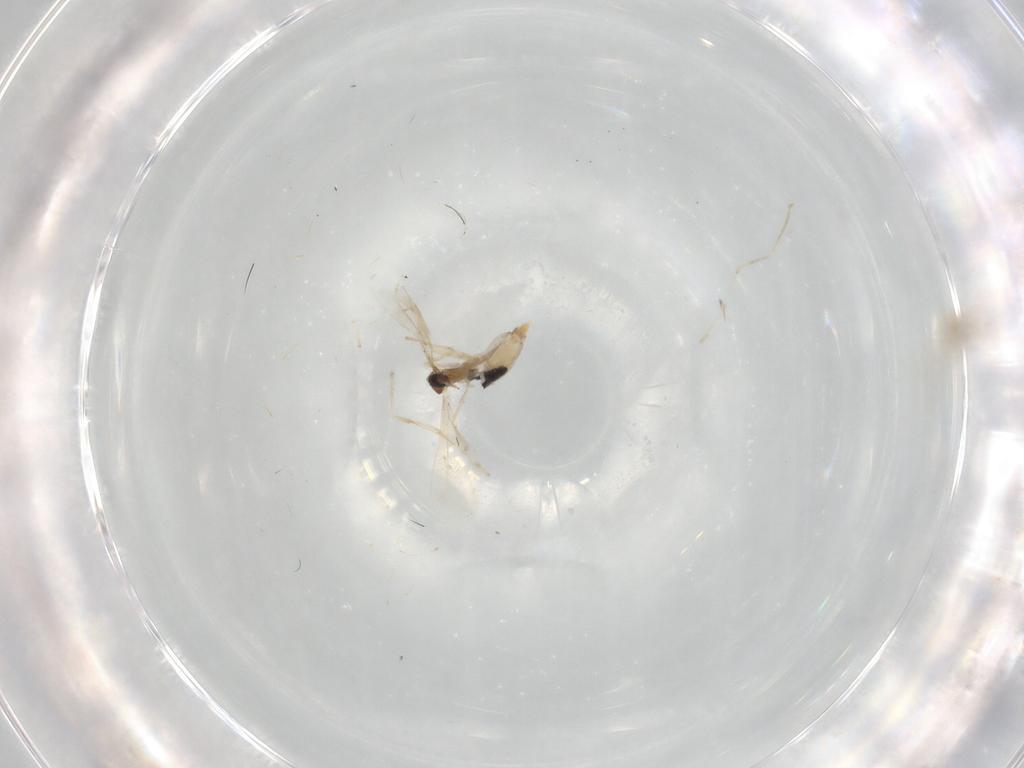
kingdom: Animalia
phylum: Arthropoda
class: Insecta
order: Diptera
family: Cecidomyiidae
